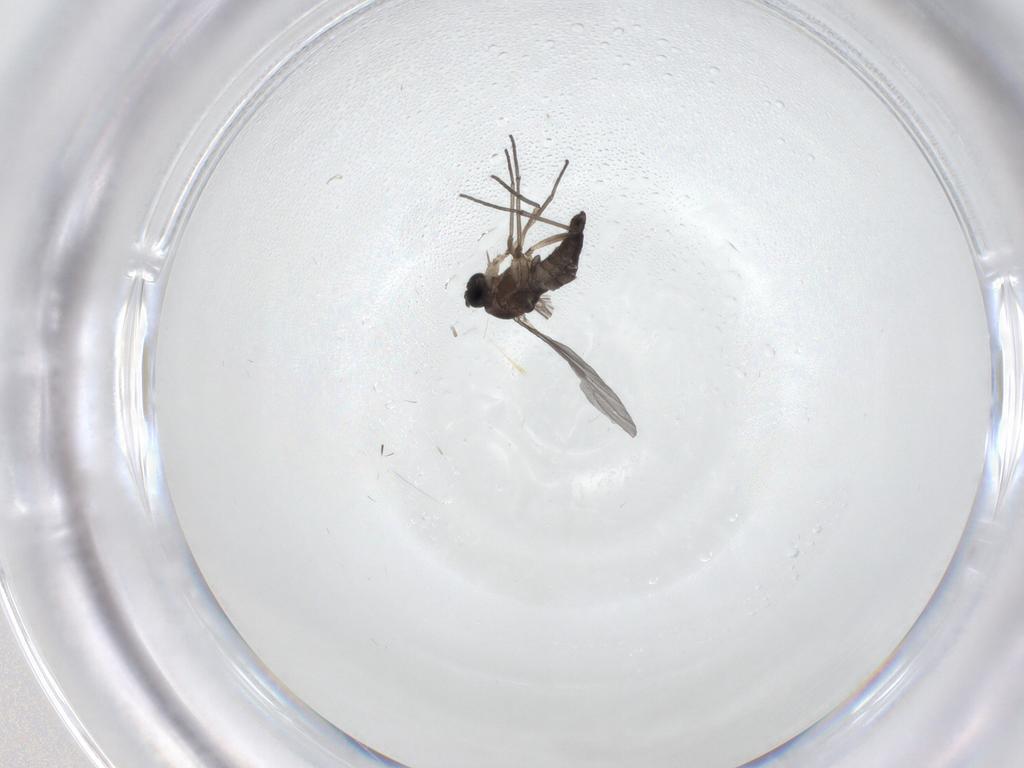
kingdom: Animalia
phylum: Arthropoda
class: Insecta
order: Diptera
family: Sciaridae
